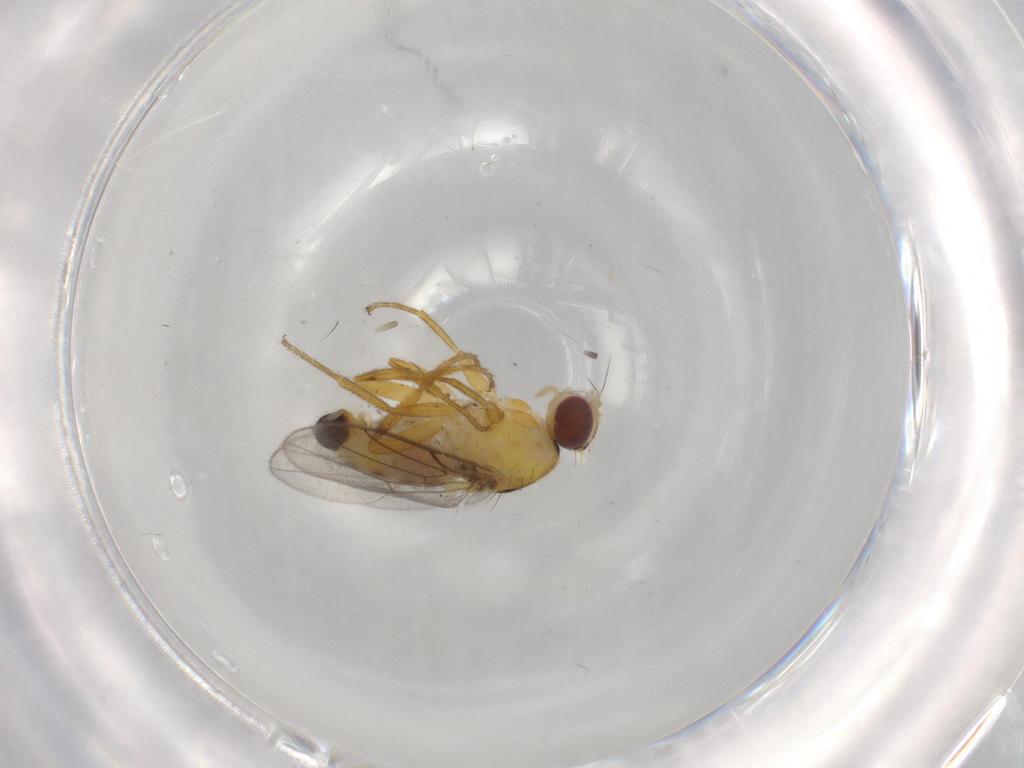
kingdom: Animalia
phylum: Arthropoda
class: Insecta
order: Diptera
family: Chloropidae
